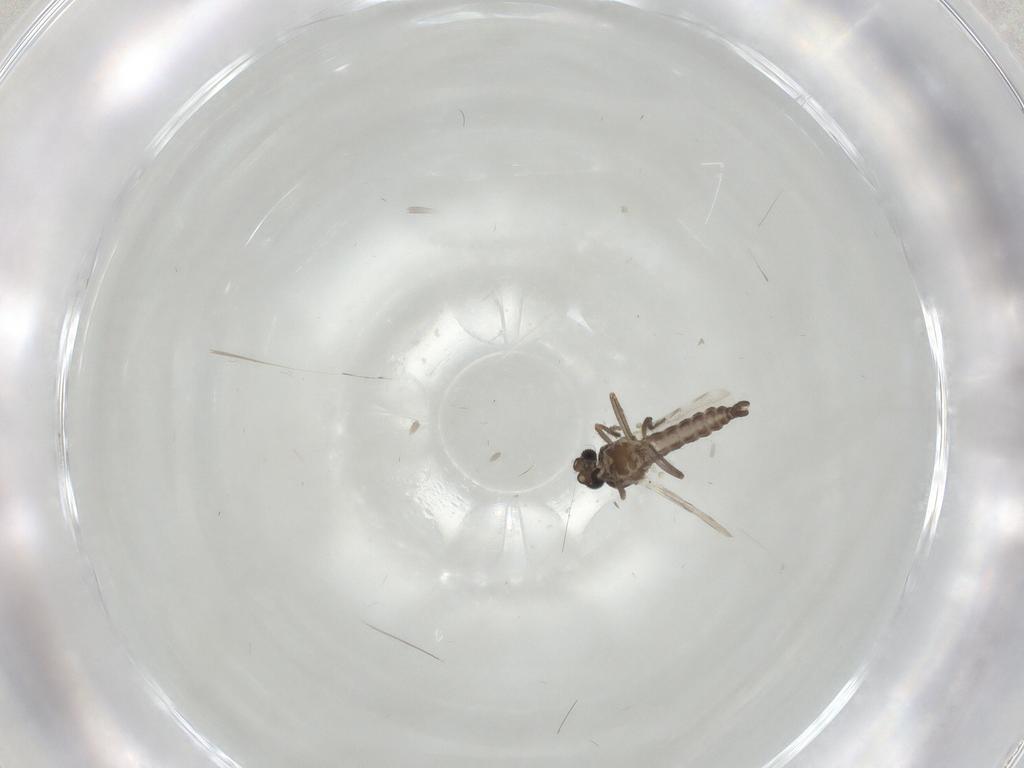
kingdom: Animalia
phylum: Arthropoda
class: Insecta
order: Diptera
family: Ceratopogonidae
